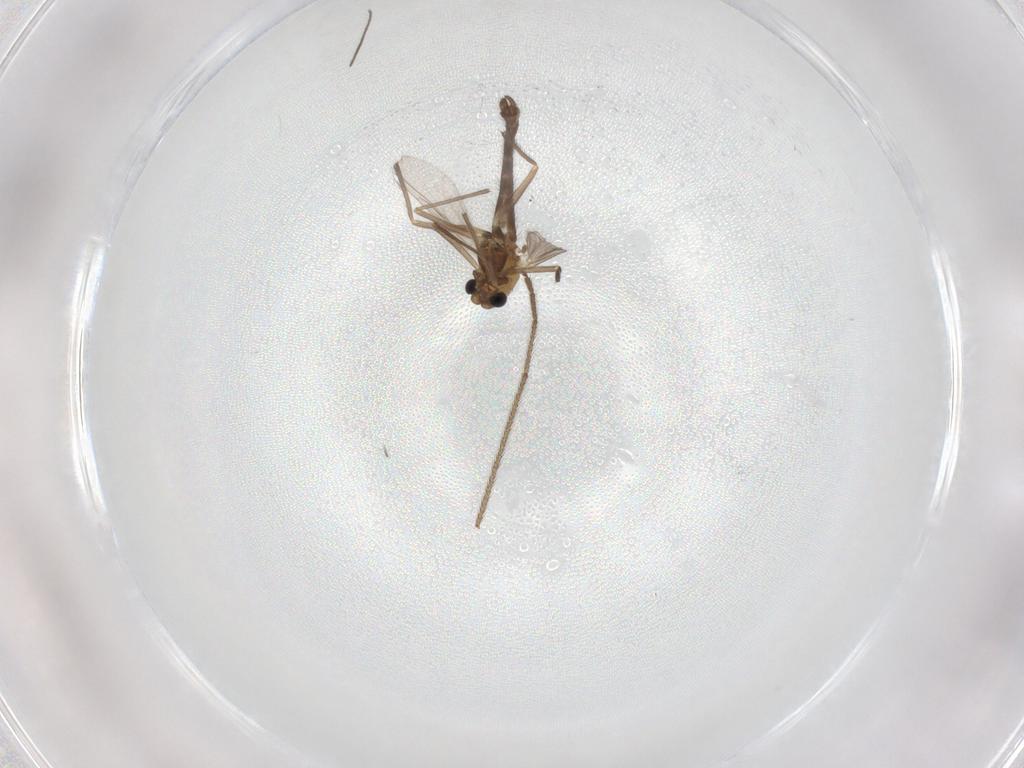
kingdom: Animalia
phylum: Arthropoda
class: Insecta
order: Diptera
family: Chironomidae
